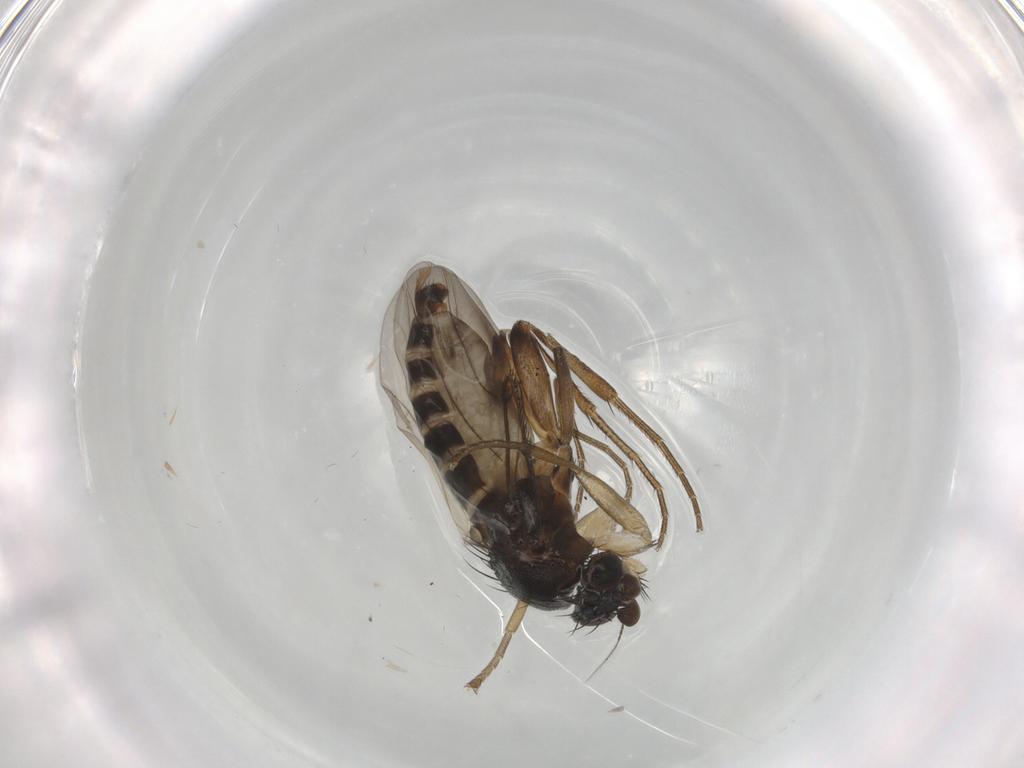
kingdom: Animalia
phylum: Arthropoda
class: Insecta
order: Diptera
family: Phoridae
